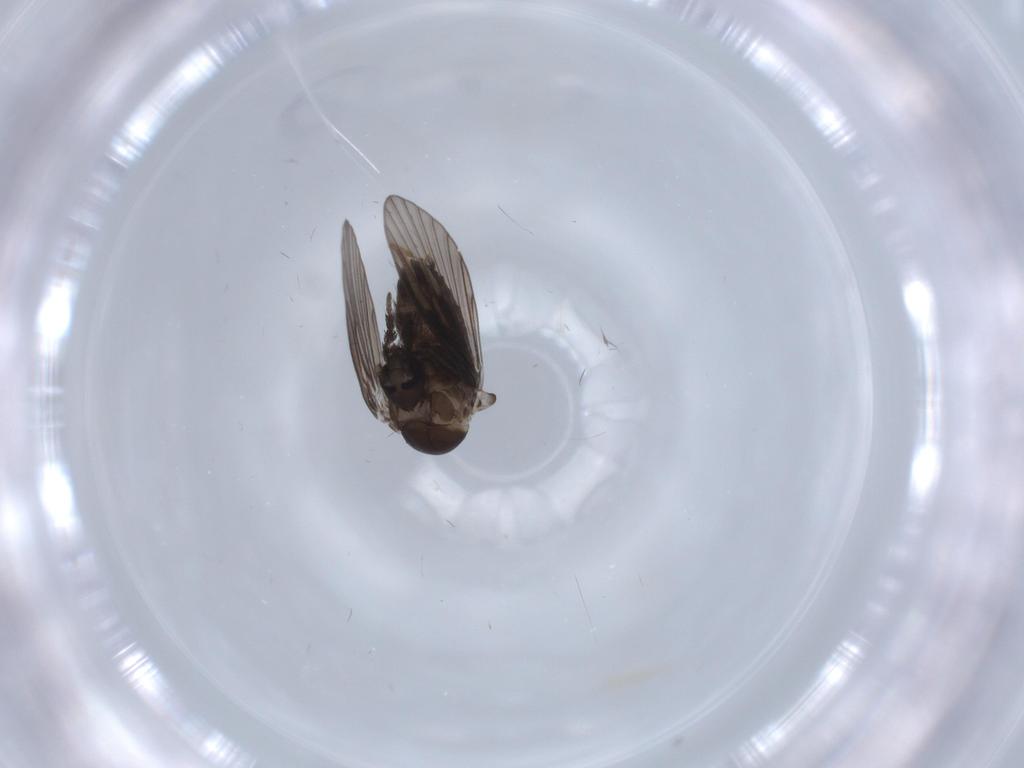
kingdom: Animalia
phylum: Arthropoda
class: Insecta
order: Diptera
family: Psychodidae
